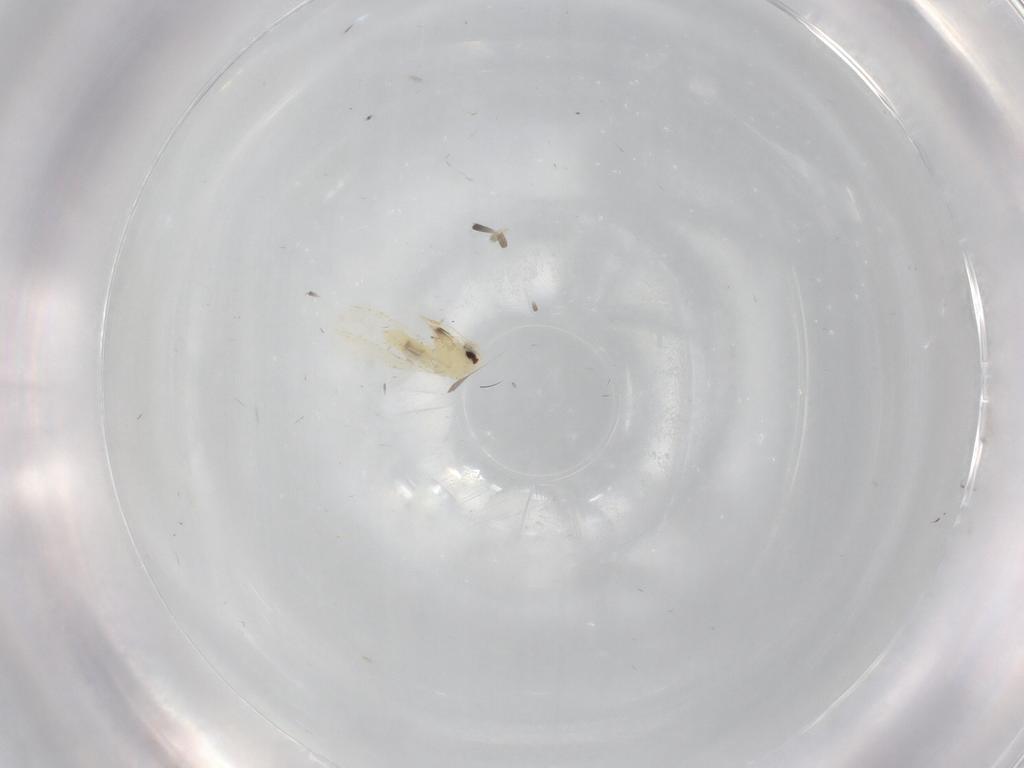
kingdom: Animalia
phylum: Arthropoda
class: Insecta
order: Hemiptera
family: Aleyrodidae
